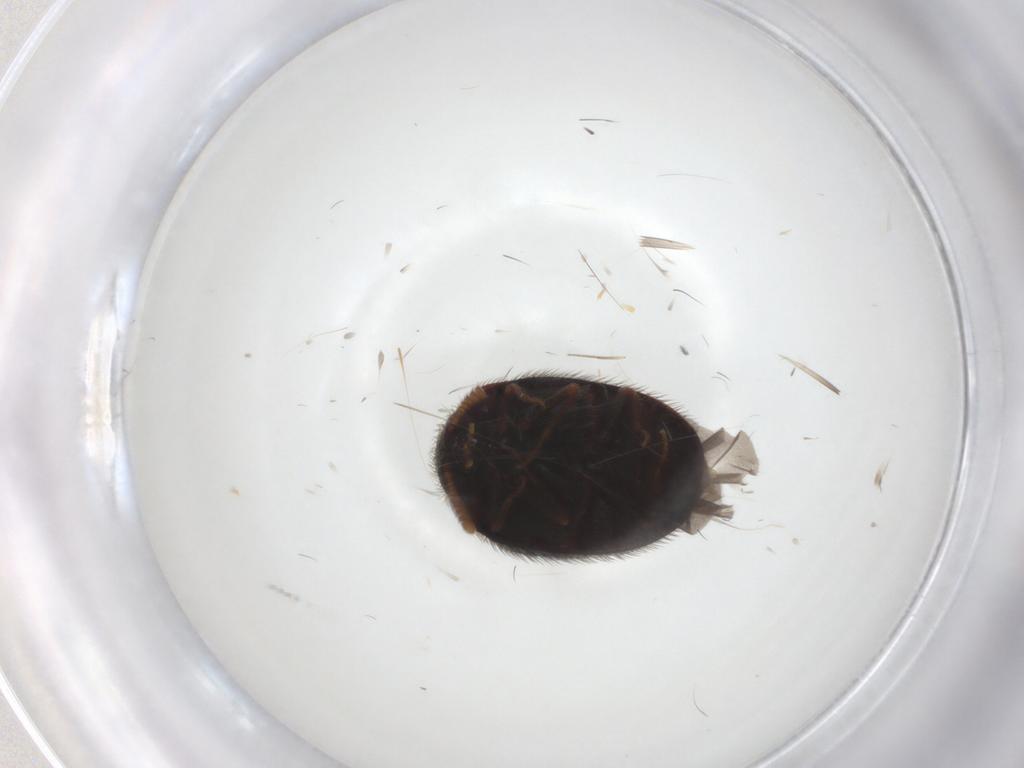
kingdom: Animalia
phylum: Arthropoda
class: Insecta
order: Coleoptera
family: Dermestidae
